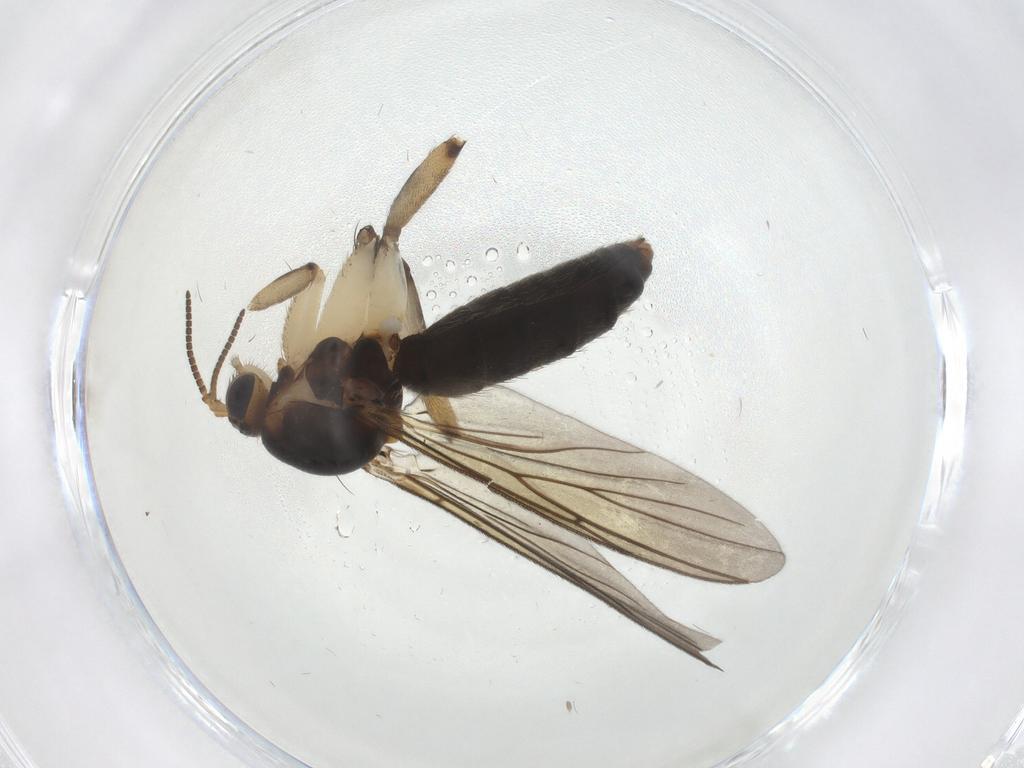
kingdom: Animalia
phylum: Arthropoda
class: Insecta
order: Diptera
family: Mycetophilidae
